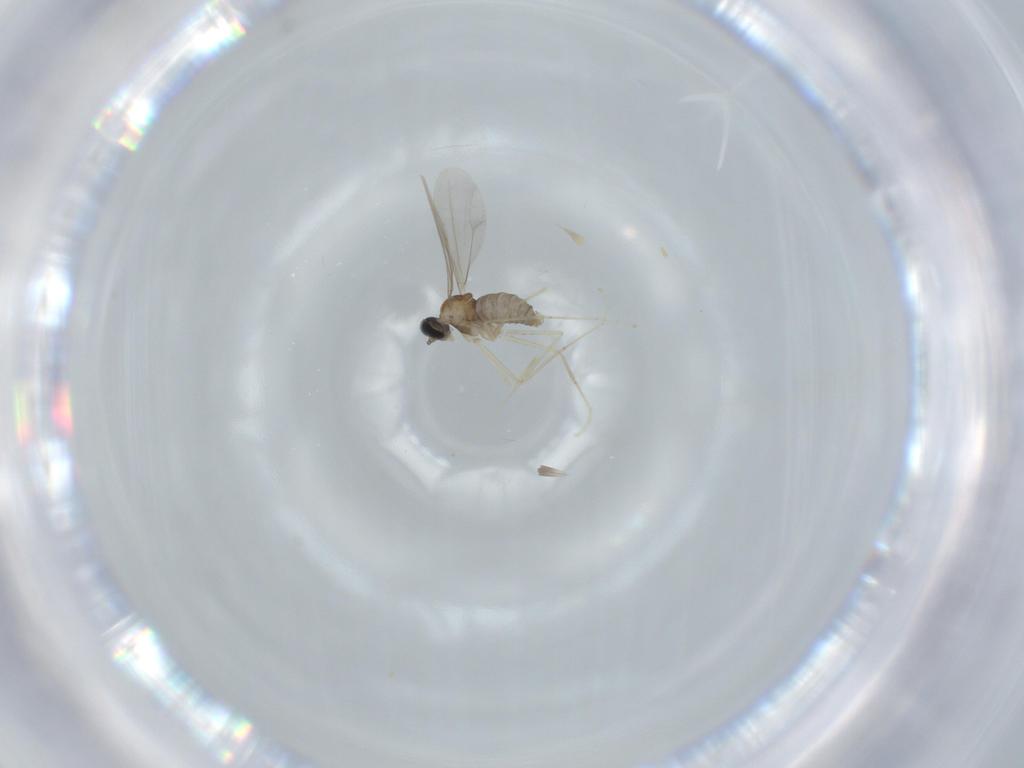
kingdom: Animalia
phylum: Arthropoda
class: Insecta
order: Diptera
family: Cecidomyiidae
